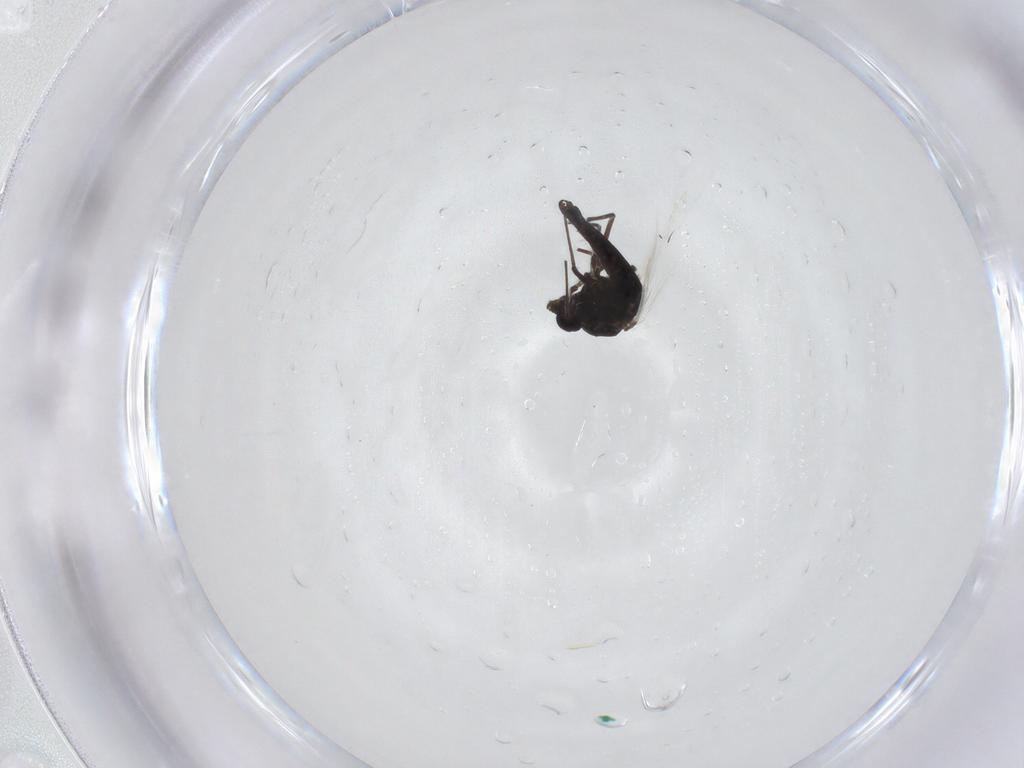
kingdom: Animalia
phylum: Arthropoda
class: Insecta
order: Diptera
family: Chironomidae
